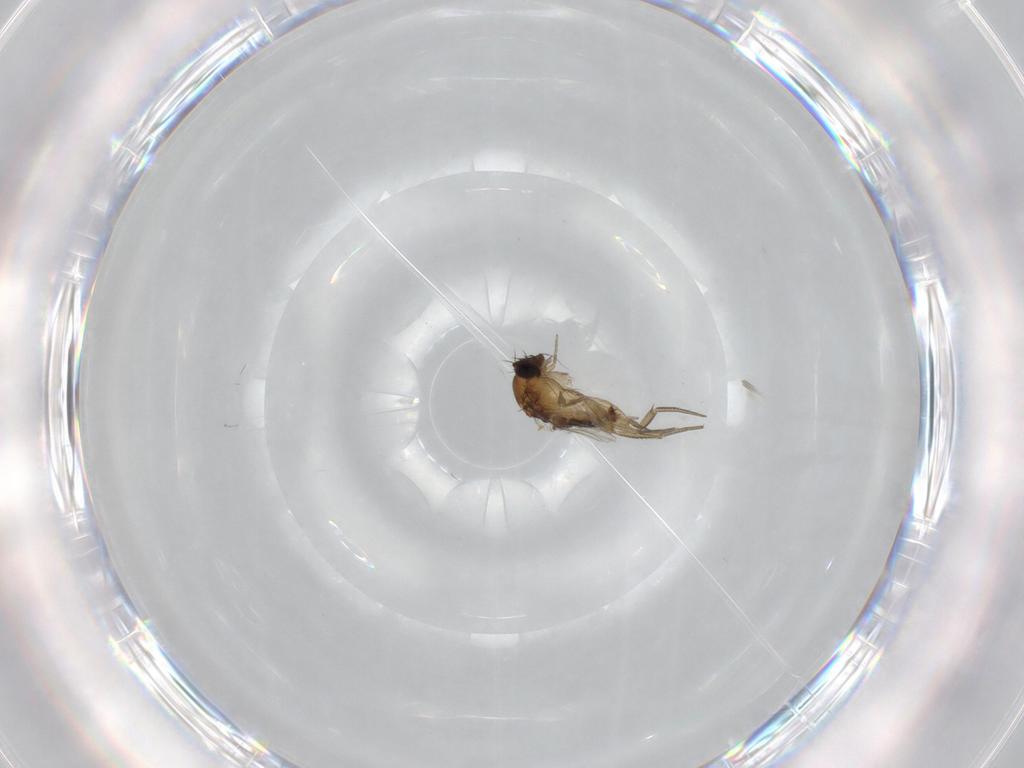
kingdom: Animalia
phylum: Arthropoda
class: Insecta
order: Diptera
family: Phoridae
